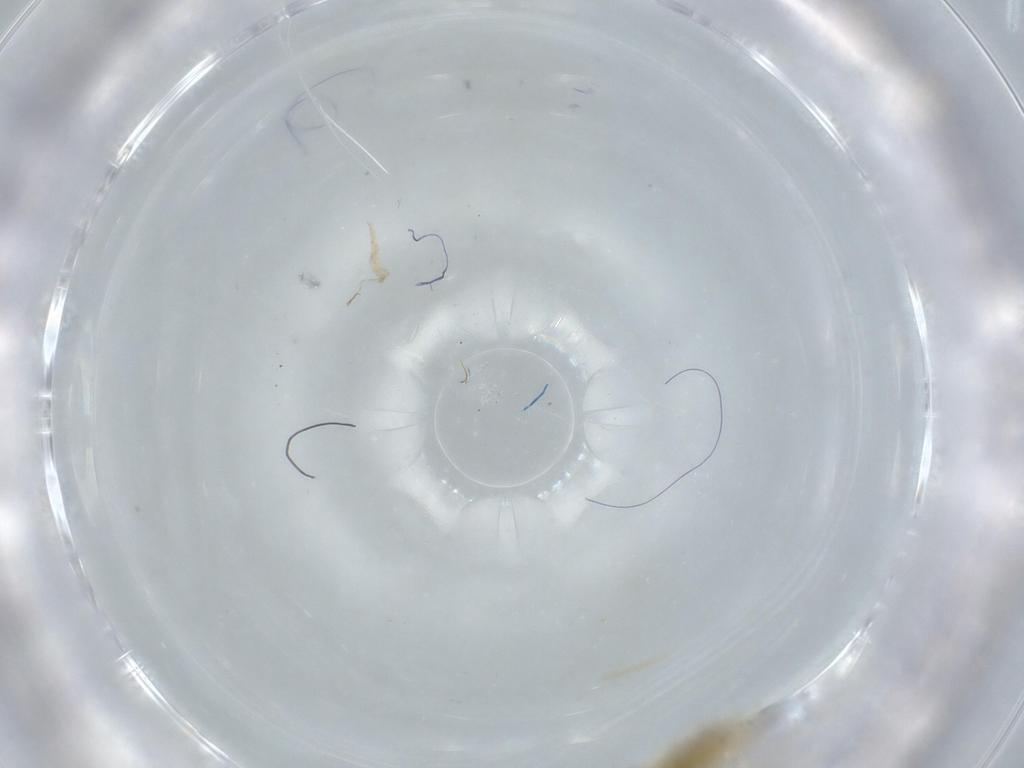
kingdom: Animalia
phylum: Arthropoda
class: Insecta
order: Diptera
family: Chironomidae
